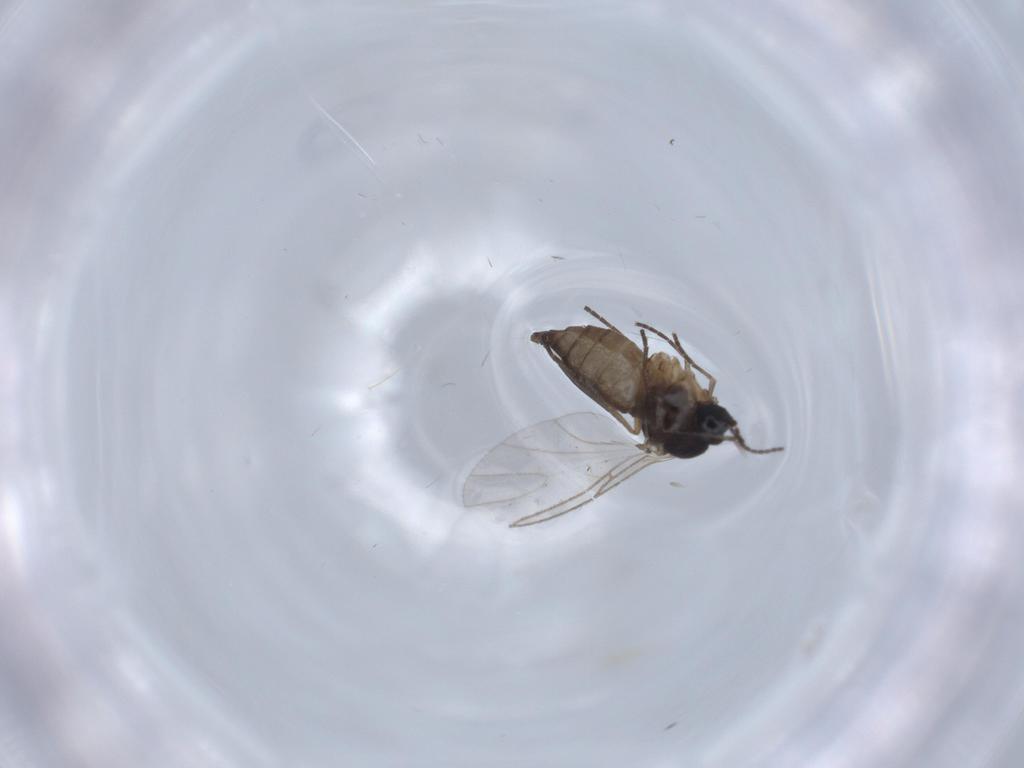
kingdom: Animalia
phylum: Arthropoda
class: Insecta
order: Diptera
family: Sciaridae
